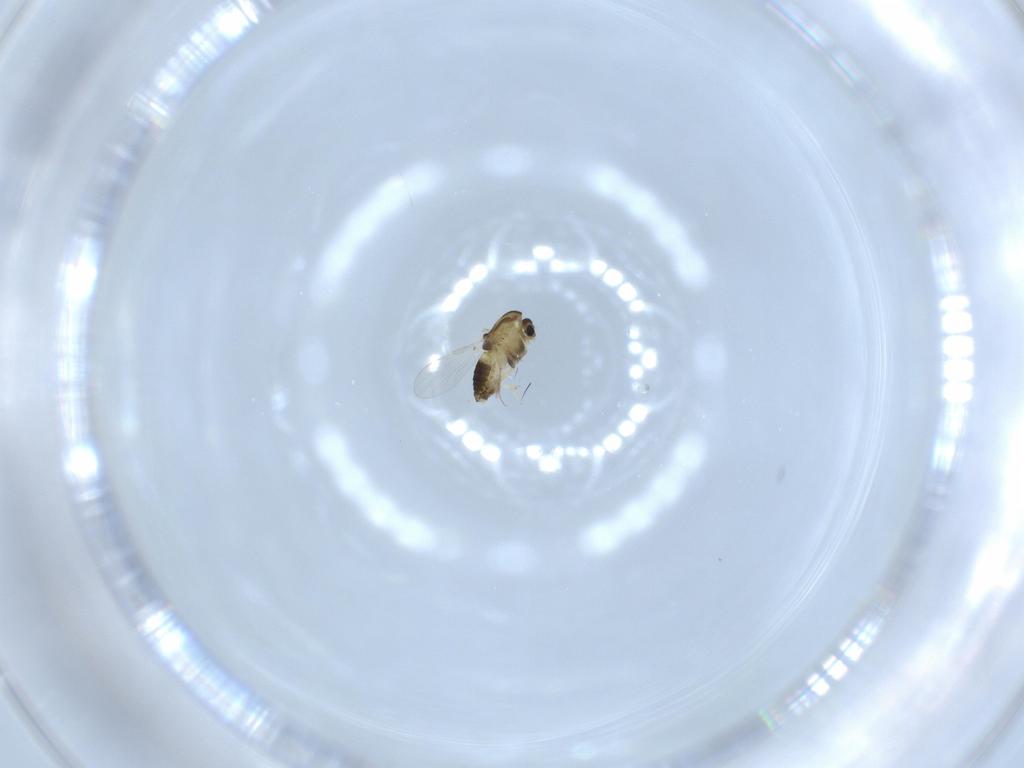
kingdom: Animalia
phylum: Arthropoda
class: Insecta
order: Diptera
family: Chironomidae
